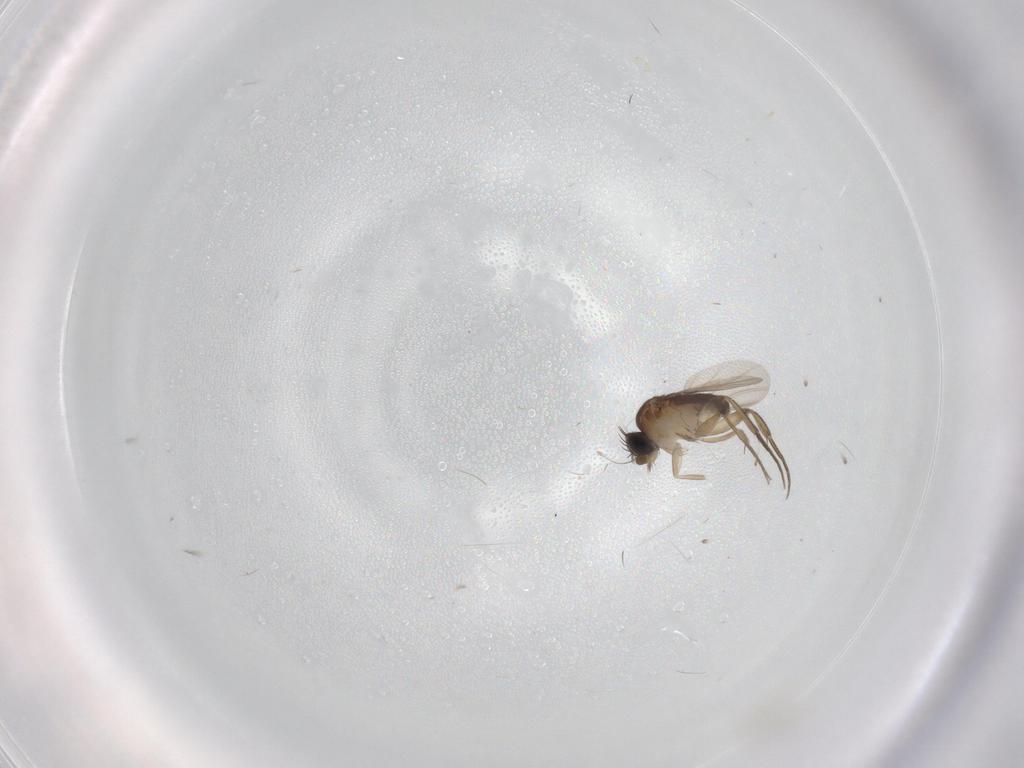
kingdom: Animalia
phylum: Arthropoda
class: Insecta
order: Diptera
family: Phoridae
